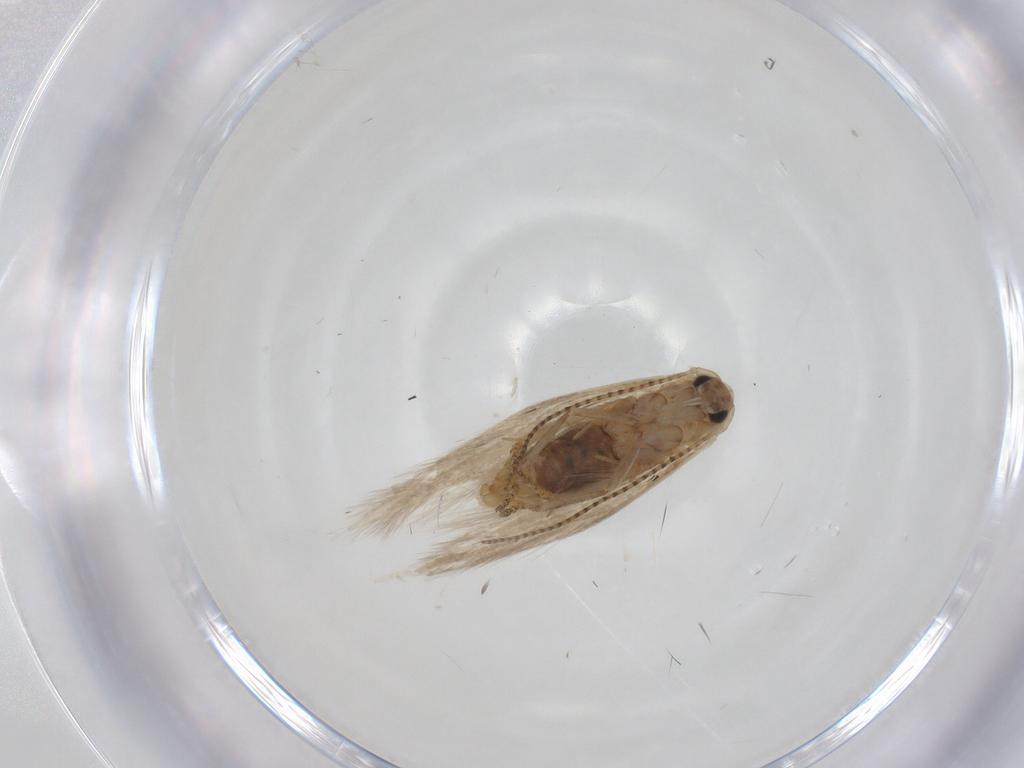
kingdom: Animalia
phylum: Arthropoda
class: Insecta
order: Lepidoptera
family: Bucculatricidae
